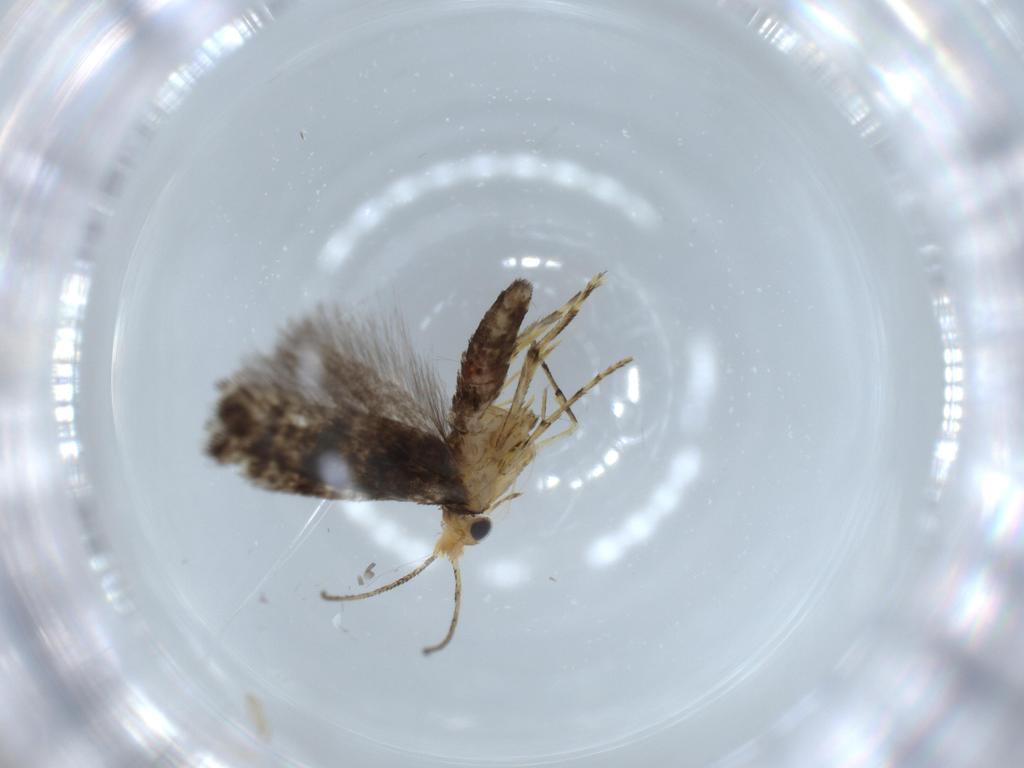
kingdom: Animalia
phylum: Arthropoda
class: Insecta
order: Lepidoptera
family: Argyresthiidae
